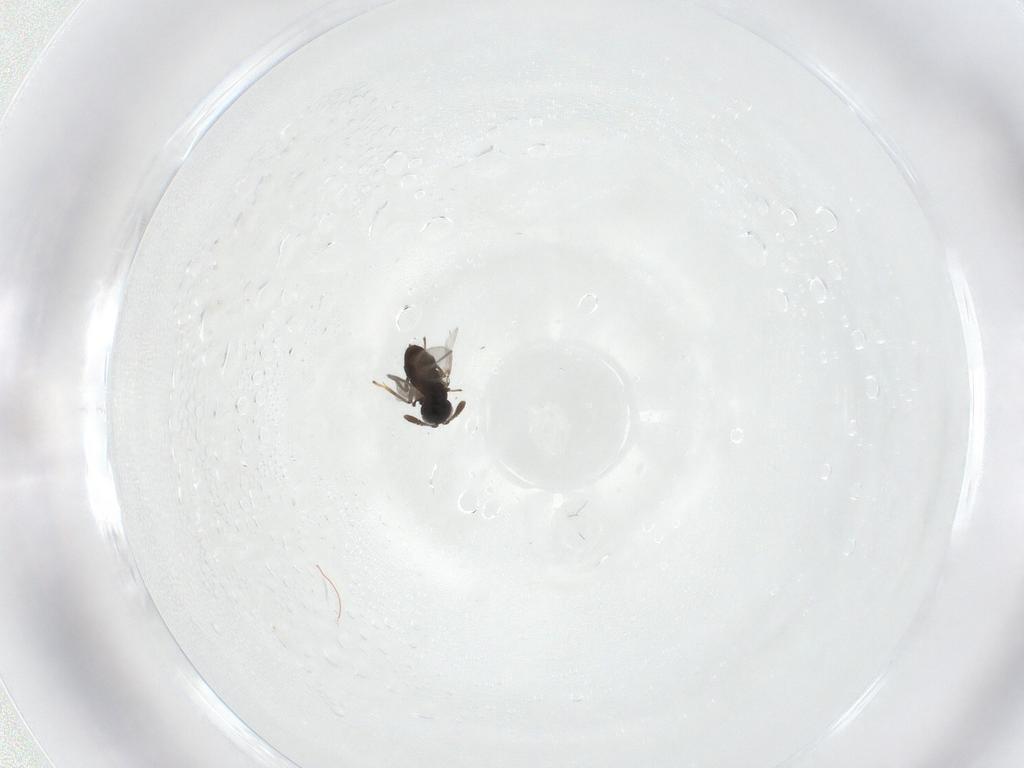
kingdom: Animalia
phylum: Arthropoda
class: Insecta
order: Diptera
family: Ceratopogonidae
